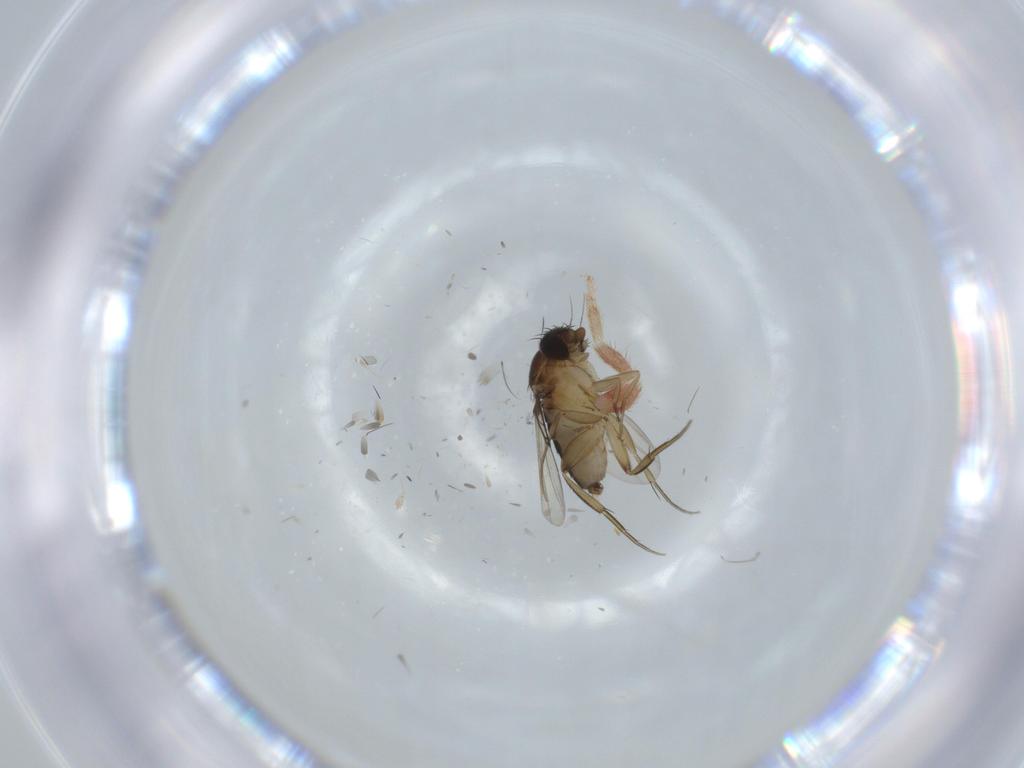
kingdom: Animalia
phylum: Arthropoda
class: Insecta
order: Diptera
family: Phoridae
